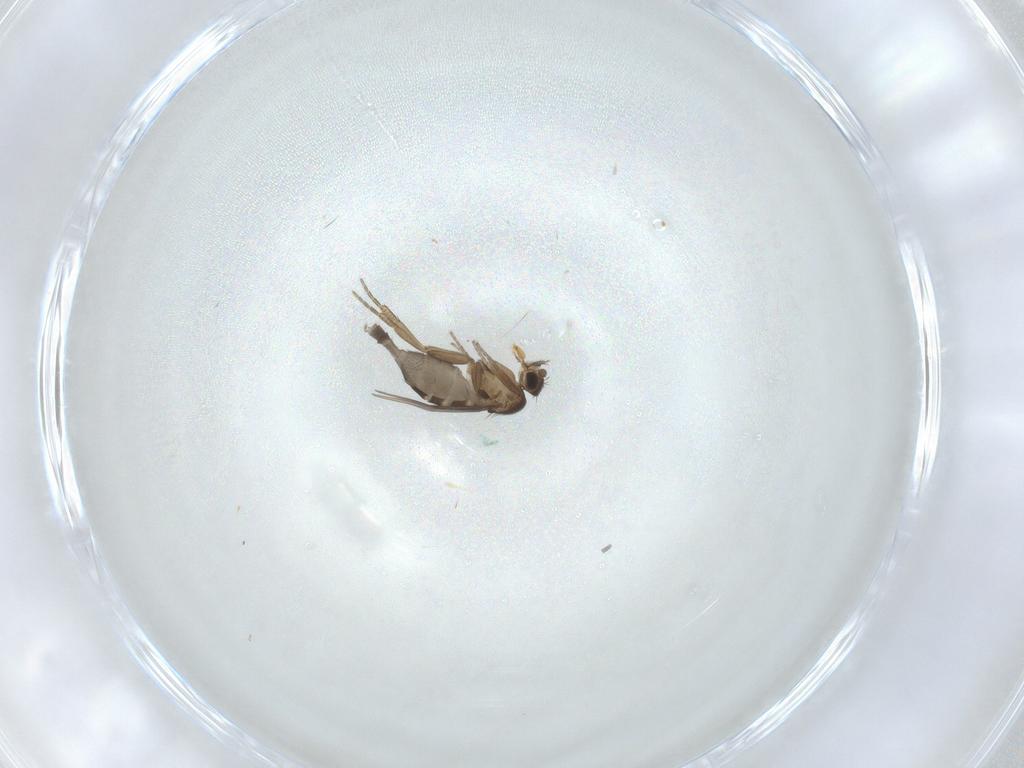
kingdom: Animalia
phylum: Arthropoda
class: Insecta
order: Diptera
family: Phoridae
